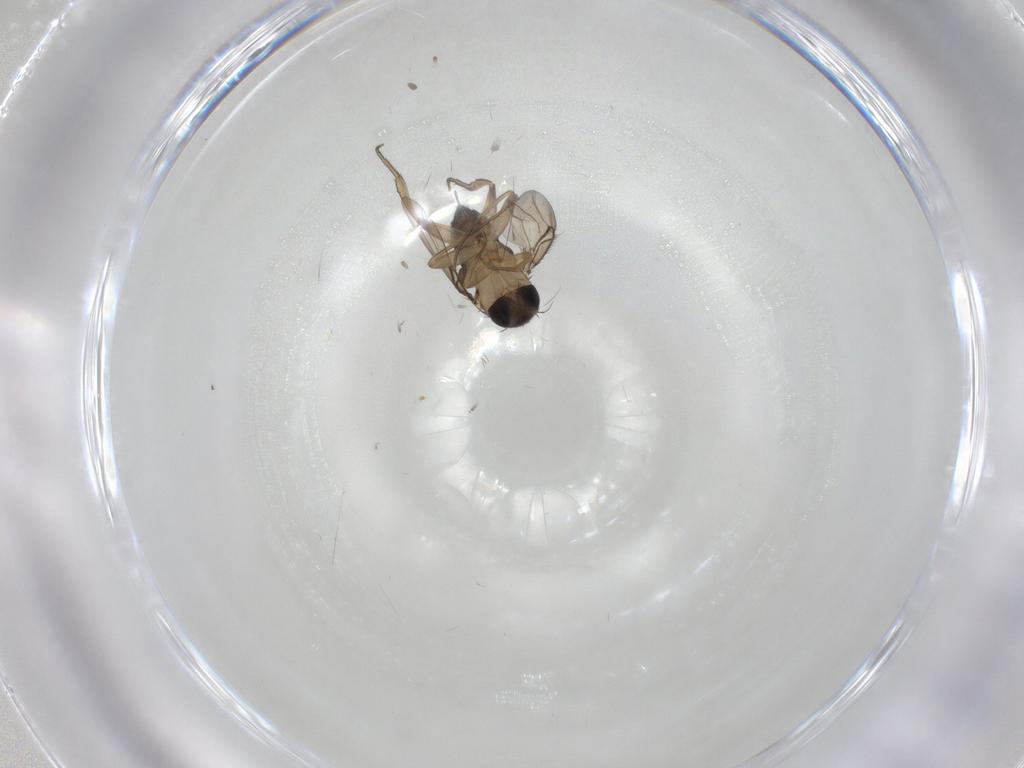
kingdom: Animalia
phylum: Arthropoda
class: Insecta
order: Diptera
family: Phoridae
